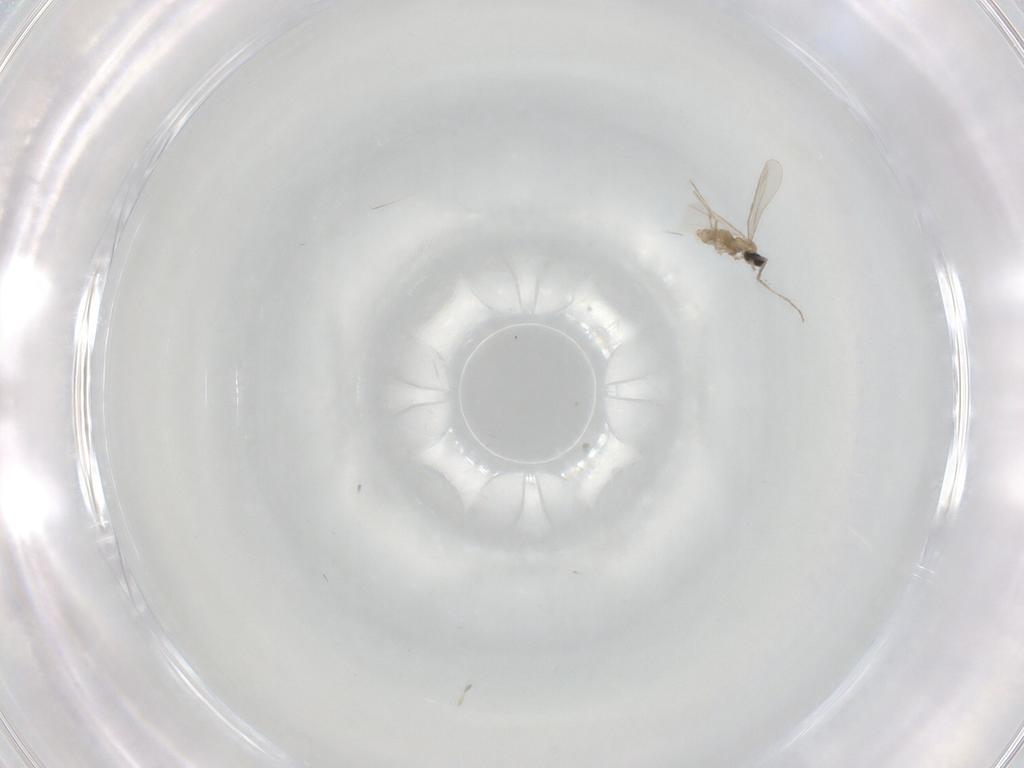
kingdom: Animalia
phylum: Arthropoda
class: Insecta
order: Diptera
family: Cecidomyiidae
